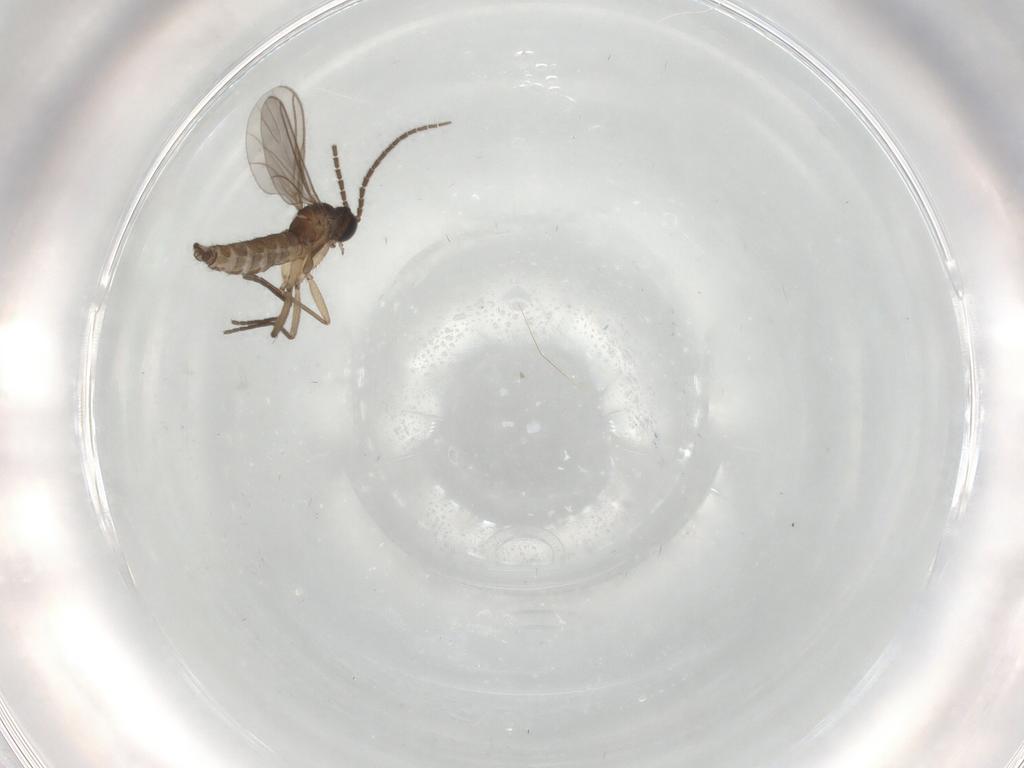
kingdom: Animalia
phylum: Arthropoda
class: Insecta
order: Diptera
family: Sciaridae
